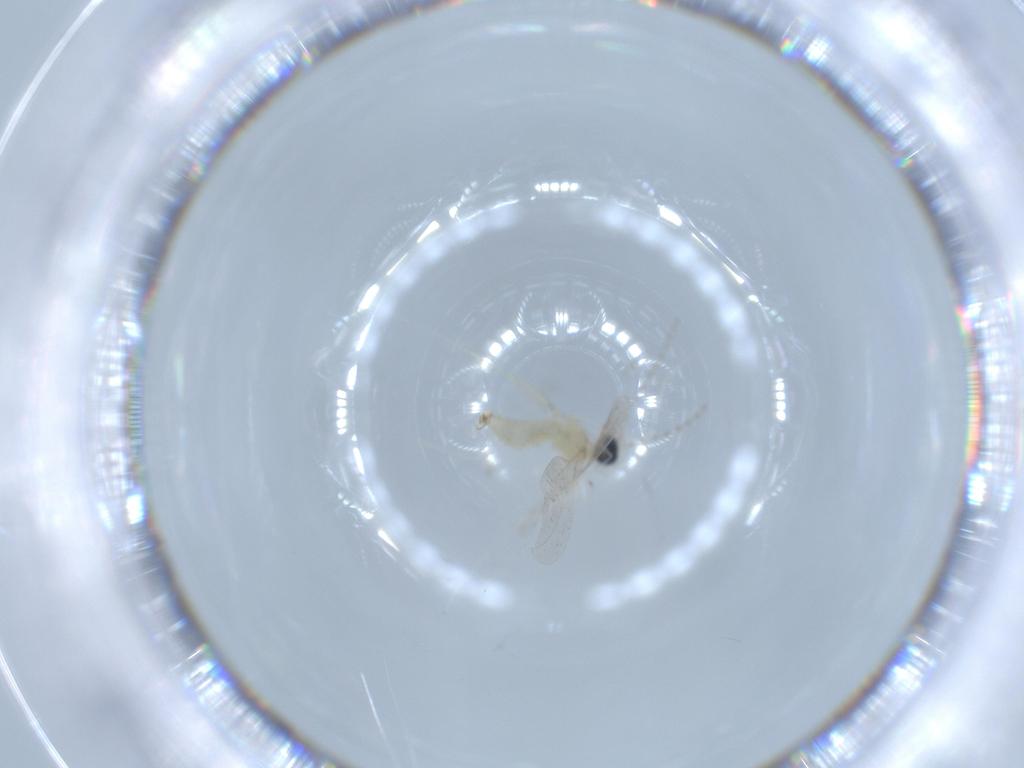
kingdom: Animalia
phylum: Arthropoda
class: Insecta
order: Diptera
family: Cecidomyiidae
